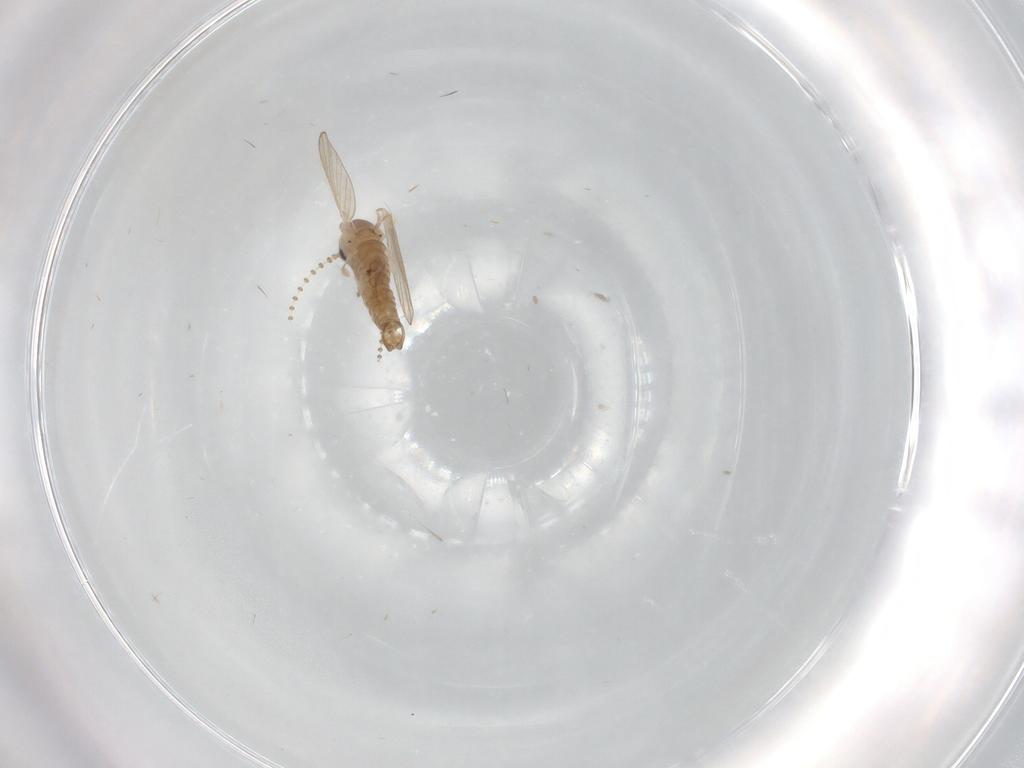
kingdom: Animalia
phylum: Arthropoda
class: Insecta
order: Diptera
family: Psychodidae
